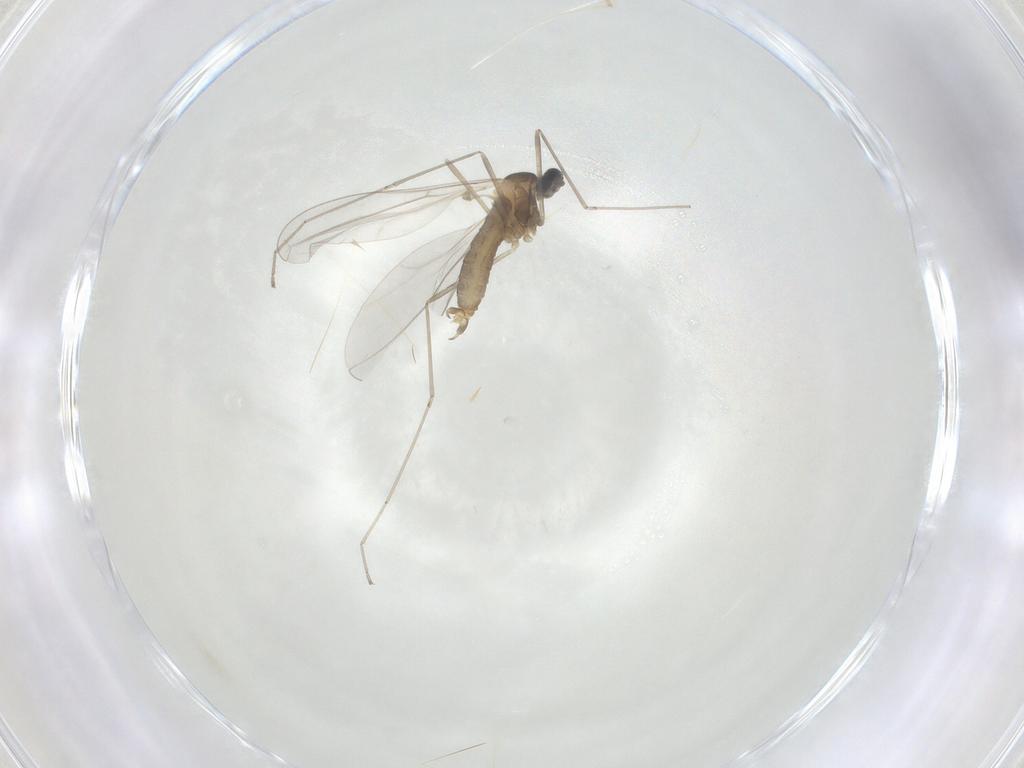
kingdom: Animalia
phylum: Arthropoda
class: Insecta
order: Diptera
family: Cecidomyiidae
